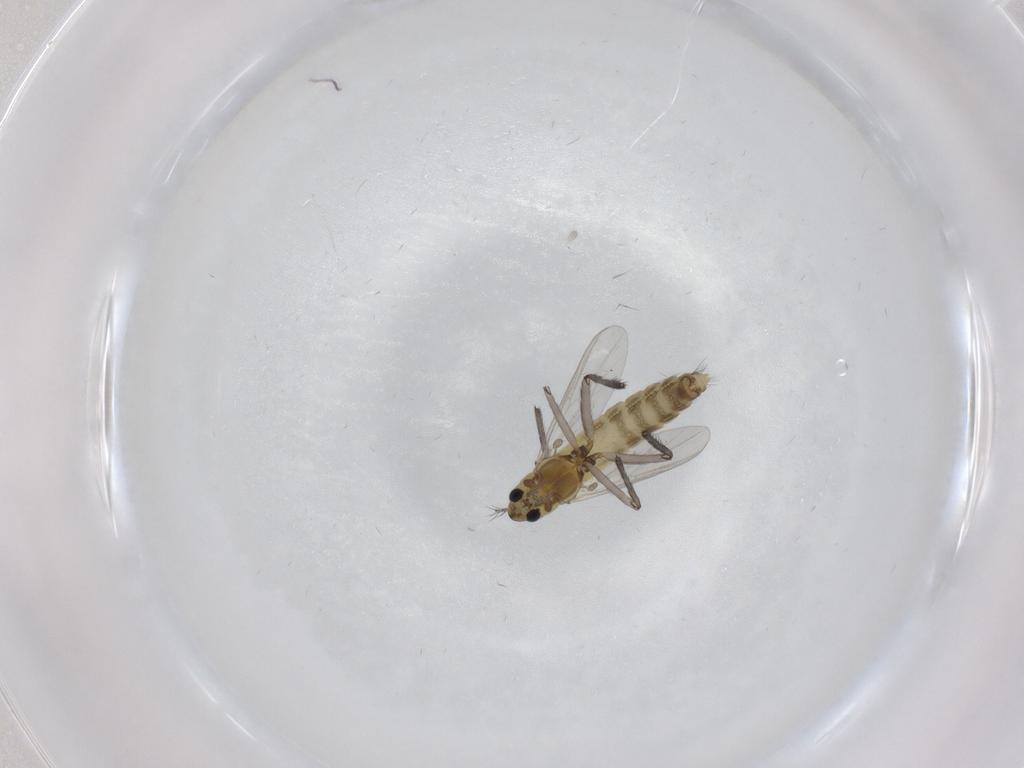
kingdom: Animalia
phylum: Arthropoda
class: Insecta
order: Diptera
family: Chironomidae
